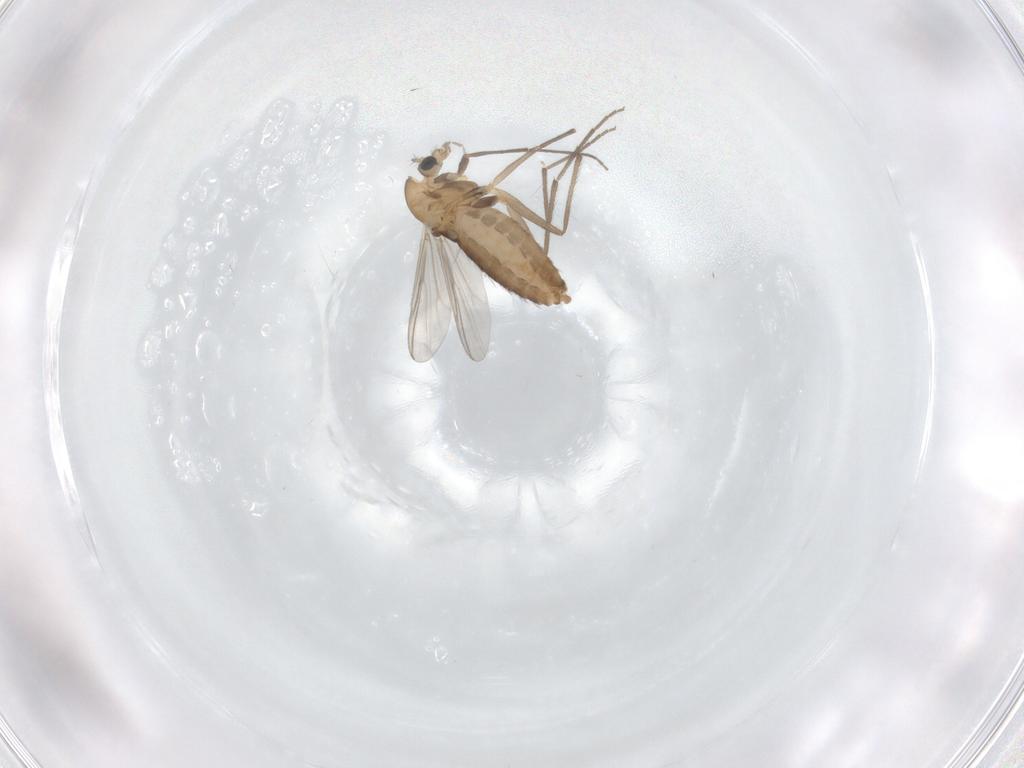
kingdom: Animalia
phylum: Arthropoda
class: Insecta
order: Diptera
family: Chironomidae
